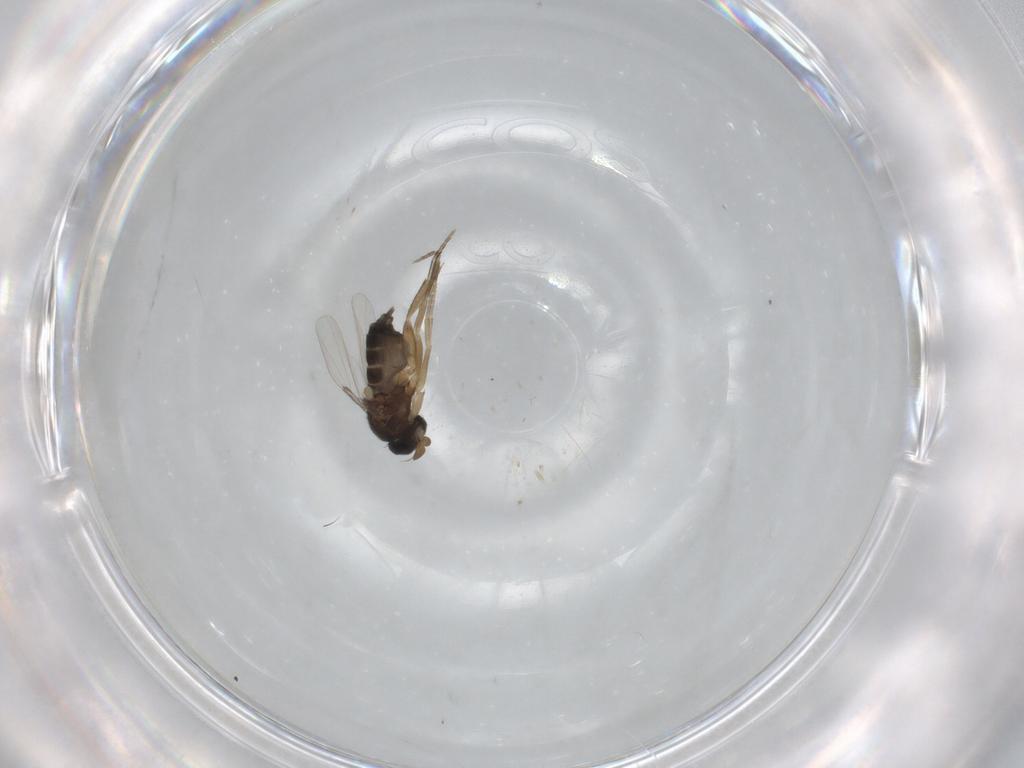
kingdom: Animalia
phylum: Arthropoda
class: Insecta
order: Diptera
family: Phoridae
